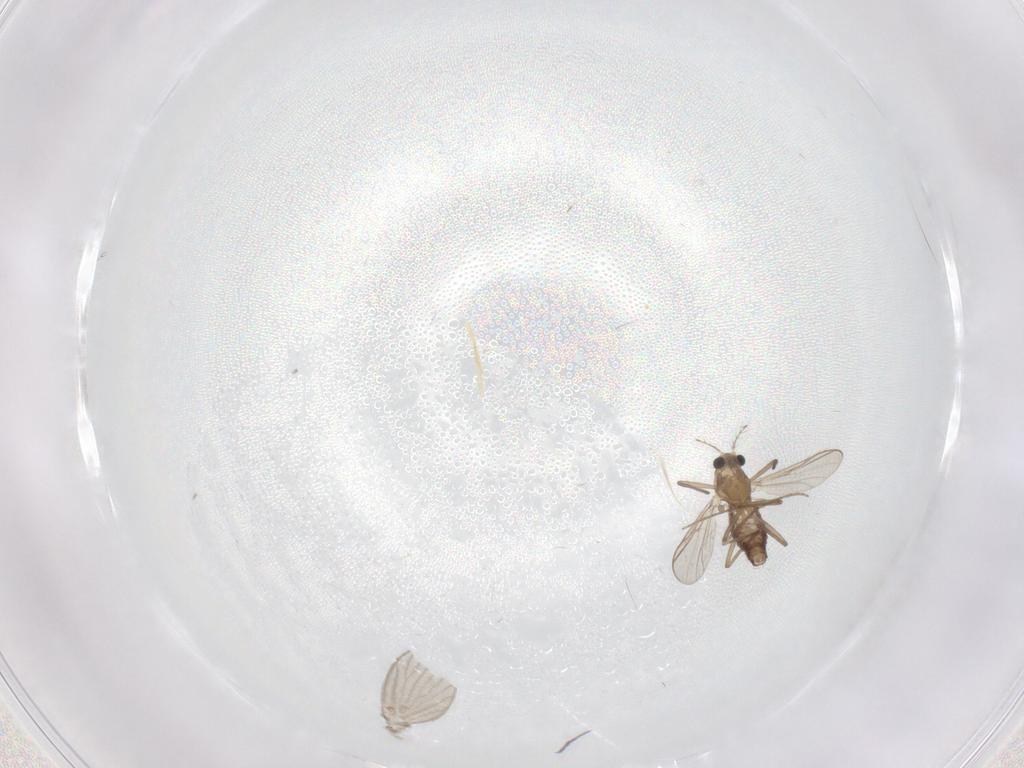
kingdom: Animalia
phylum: Arthropoda
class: Insecta
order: Diptera
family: Chironomidae
